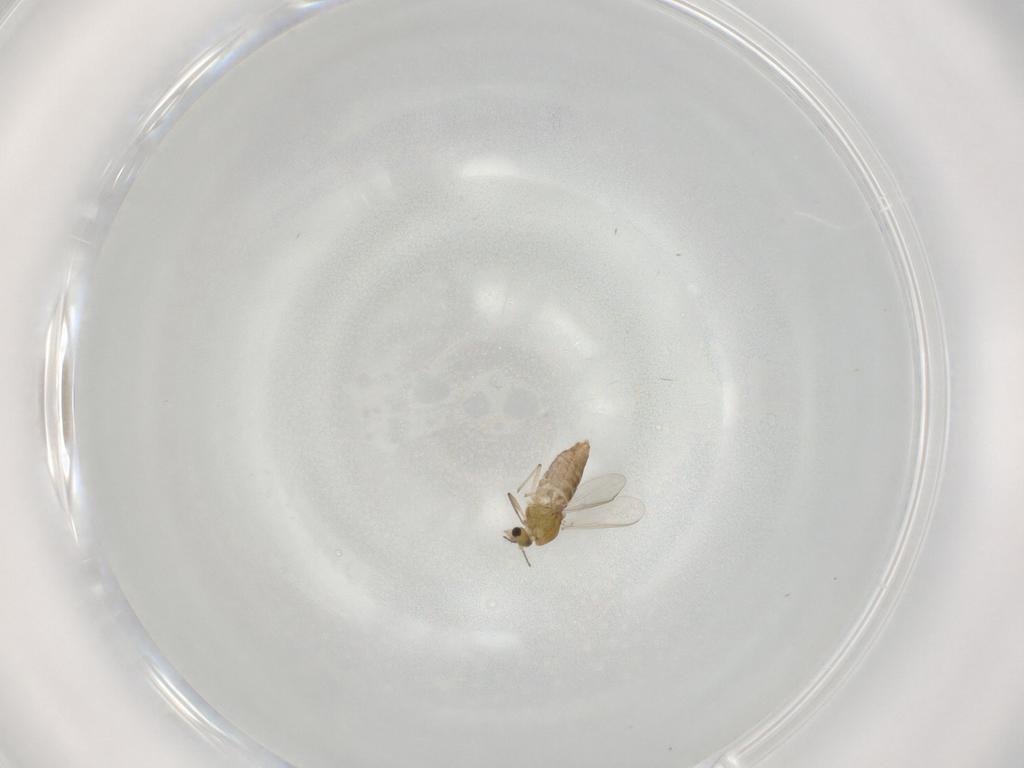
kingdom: Animalia
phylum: Arthropoda
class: Insecta
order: Diptera
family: Chironomidae
